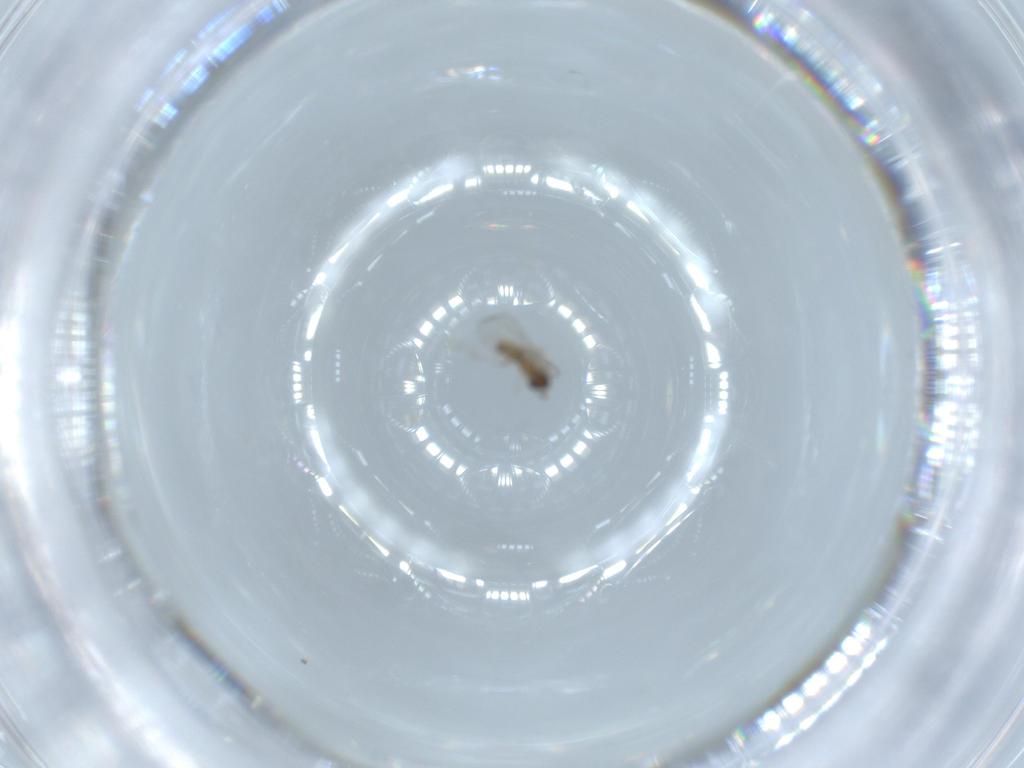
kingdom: Animalia
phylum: Arthropoda
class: Insecta
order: Diptera
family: Cecidomyiidae
